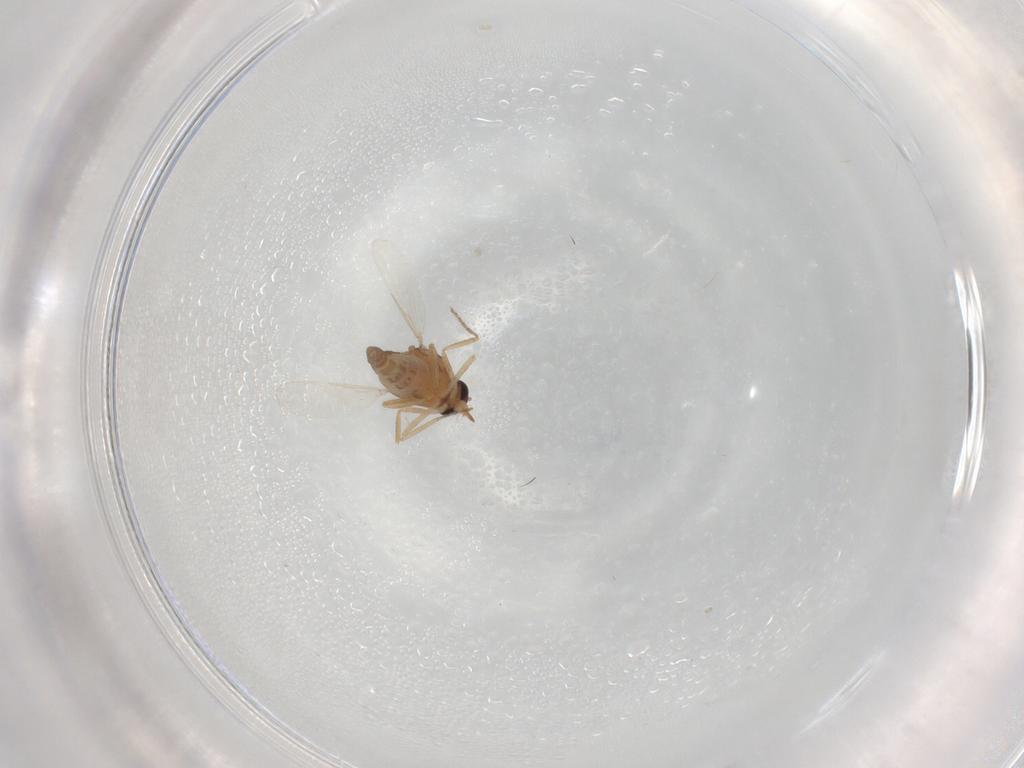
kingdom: Animalia
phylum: Arthropoda
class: Insecta
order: Diptera
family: Ceratopogonidae
